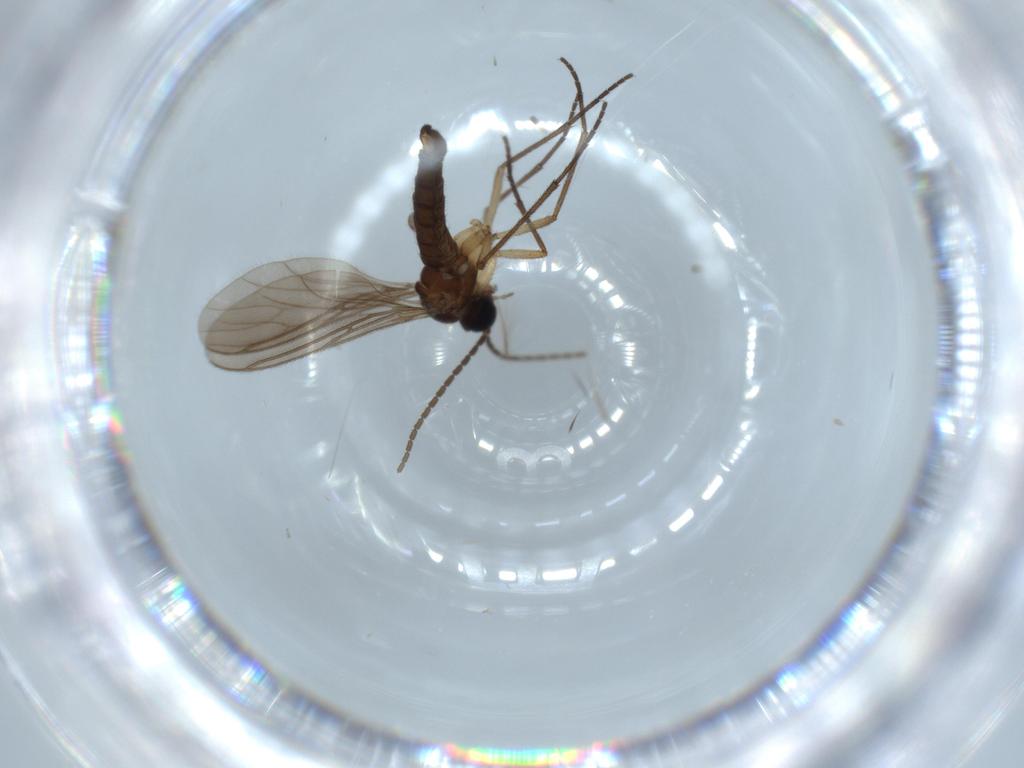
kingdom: Animalia
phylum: Arthropoda
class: Insecta
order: Diptera
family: Sciaridae
